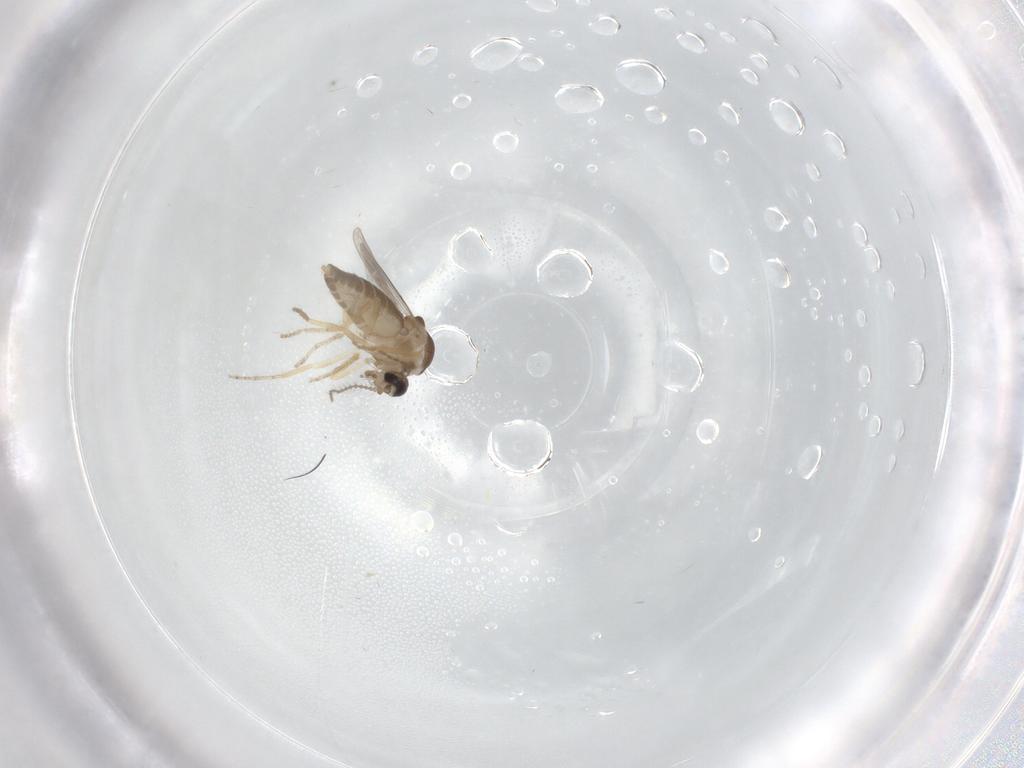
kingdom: Animalia
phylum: Arthropoda
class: Insecta
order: Diptera
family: Ceratopogonidae
